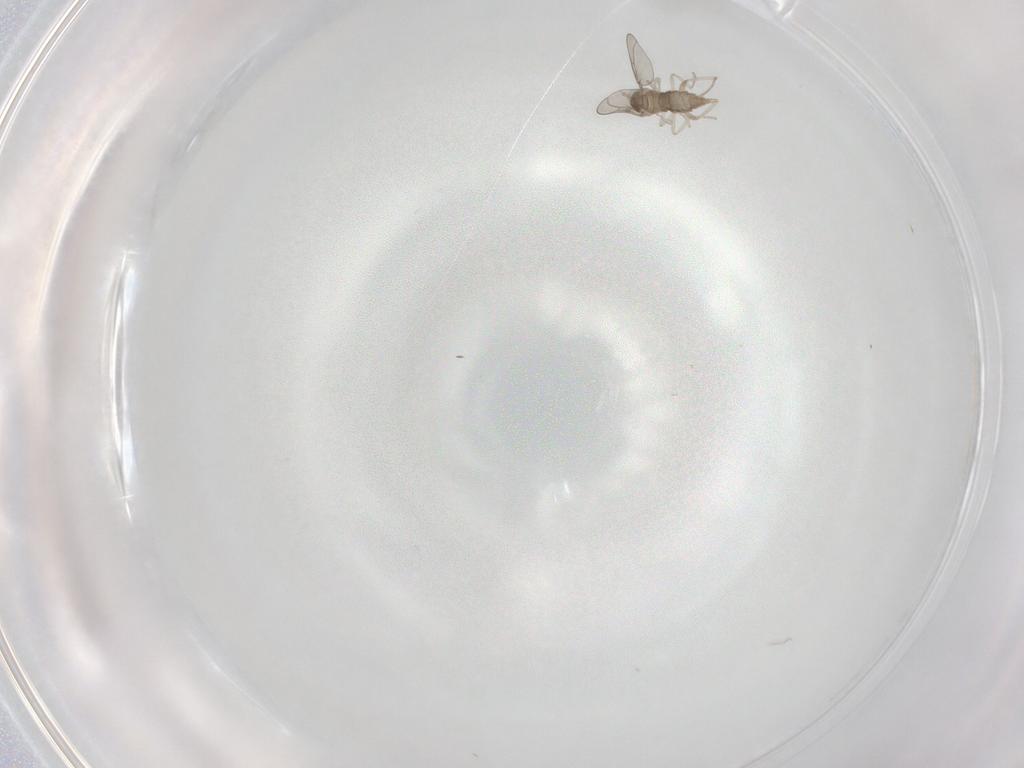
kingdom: Animalia
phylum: Arthropoda
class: Insecta
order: Diptera
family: Cecidomyiidae
